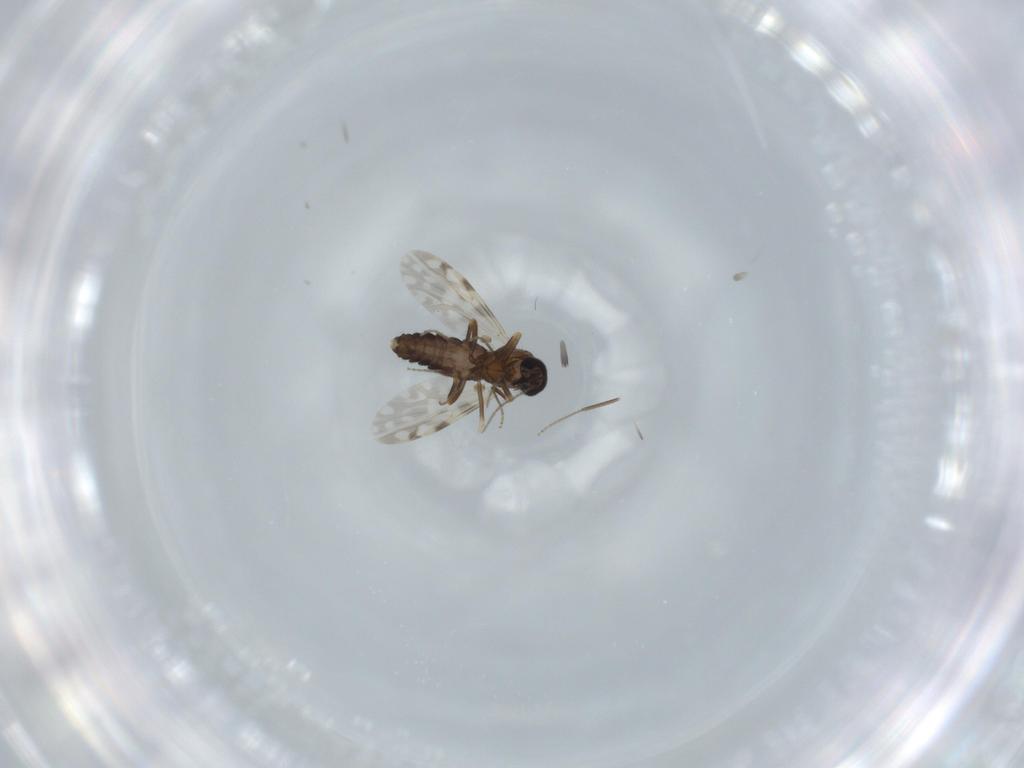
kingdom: Animalia
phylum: Arthropoda
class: Insecta
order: Diptera
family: Ceratopogonidae
